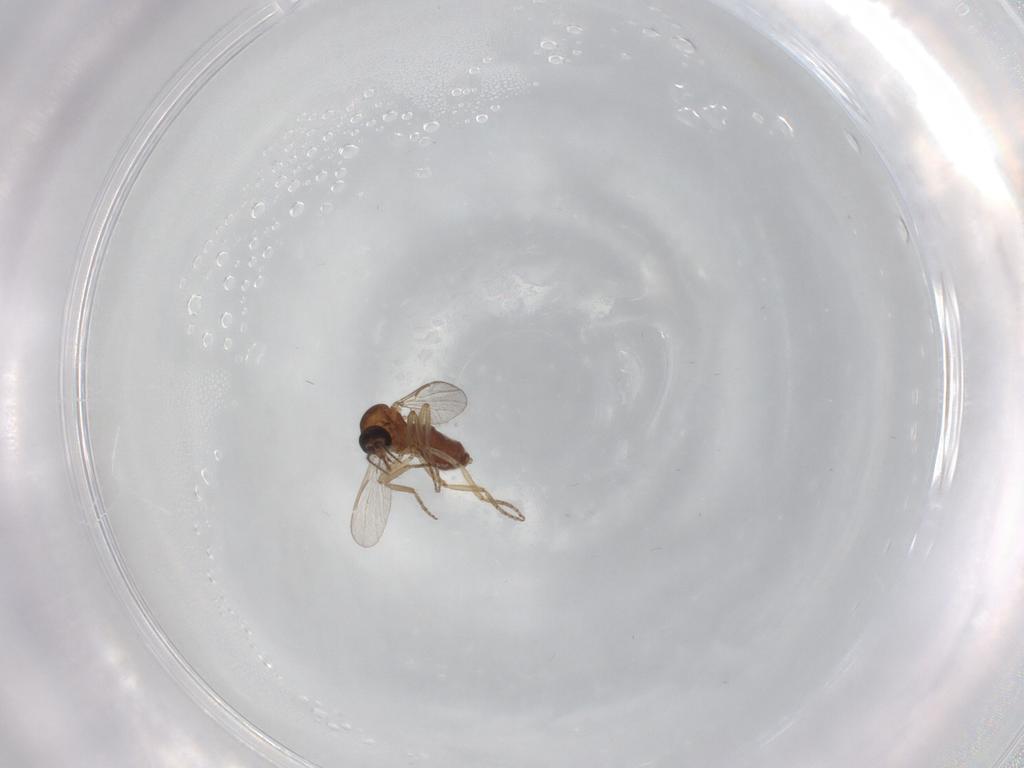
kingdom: Animalia
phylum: Arthropoda
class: Insecta
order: Diptera
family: Ceratopogonidae
